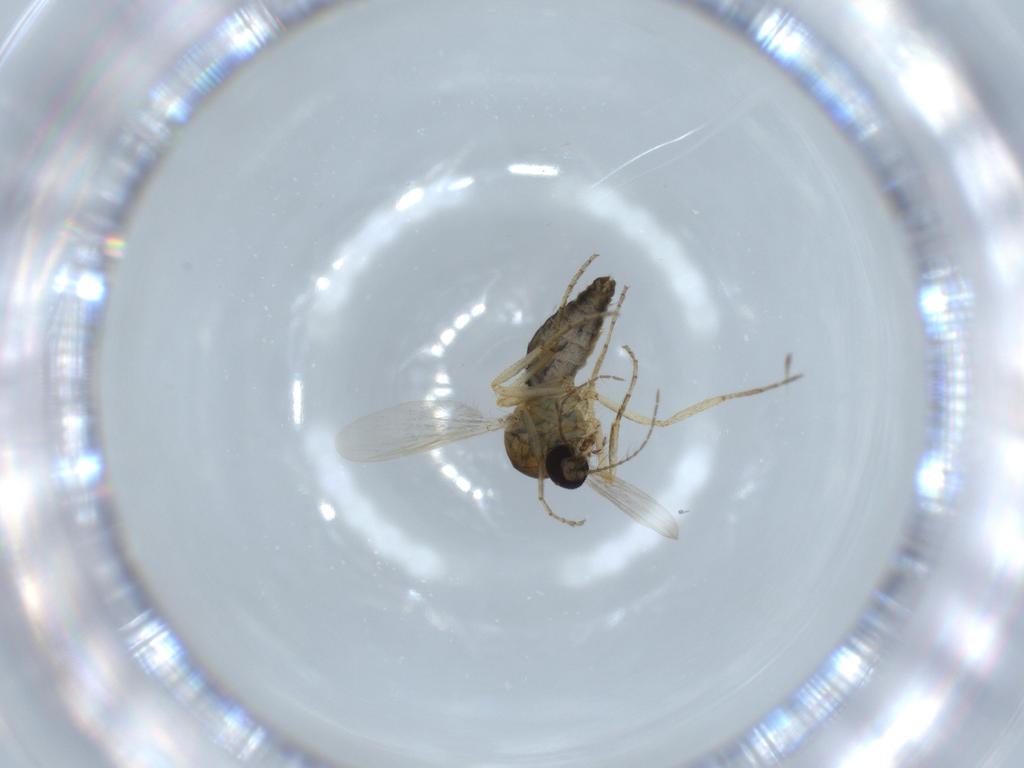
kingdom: Animalia
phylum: Arthropoda
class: Insecta
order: Diptera
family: Ceratopogonidae
